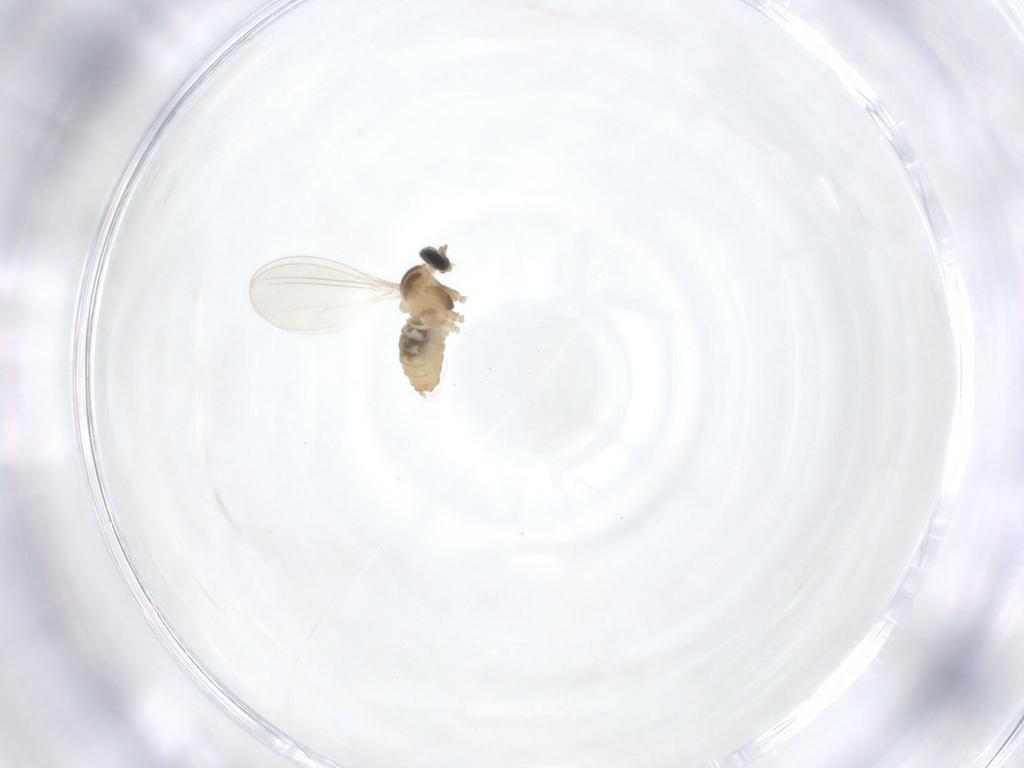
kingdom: Animalia
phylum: Arthropoda
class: Insecta
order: Diptera
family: Cecidomyiidae
